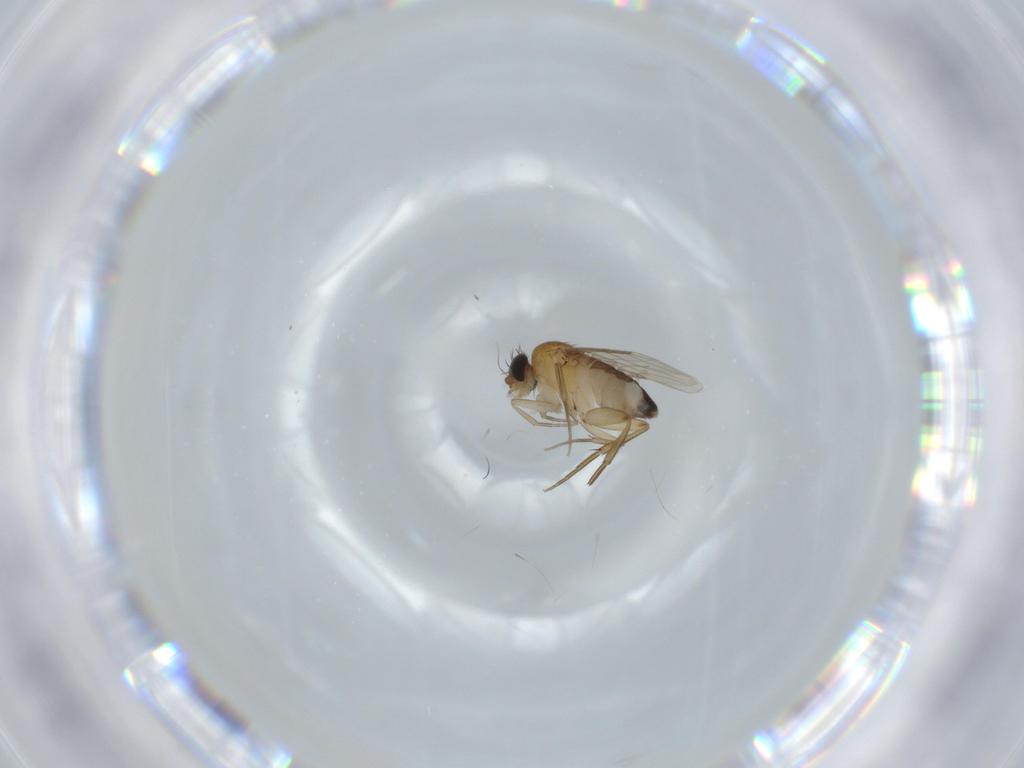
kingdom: Animalia
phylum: Arthropoda
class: Insecta
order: Diptera
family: Phoridae
